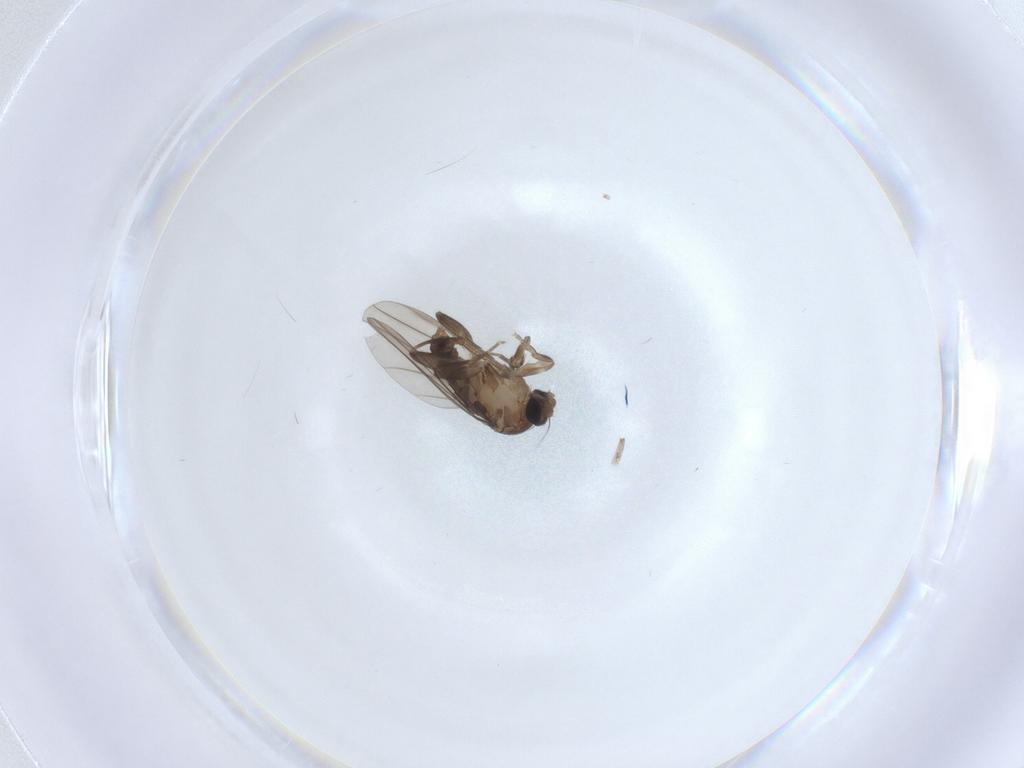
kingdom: Animalia
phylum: Arthropoda
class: Insecta
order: Diptera
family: Phoridae
